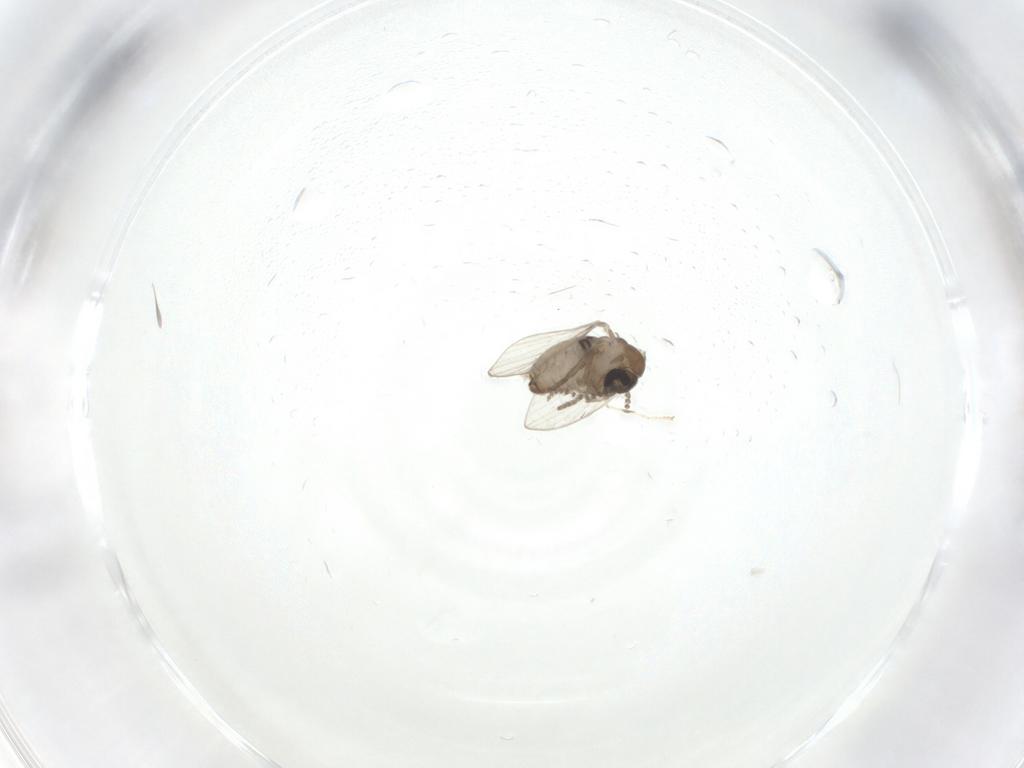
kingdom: Animalia
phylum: Arthropoda
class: Insecta
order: Diptera
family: Psychodidae
